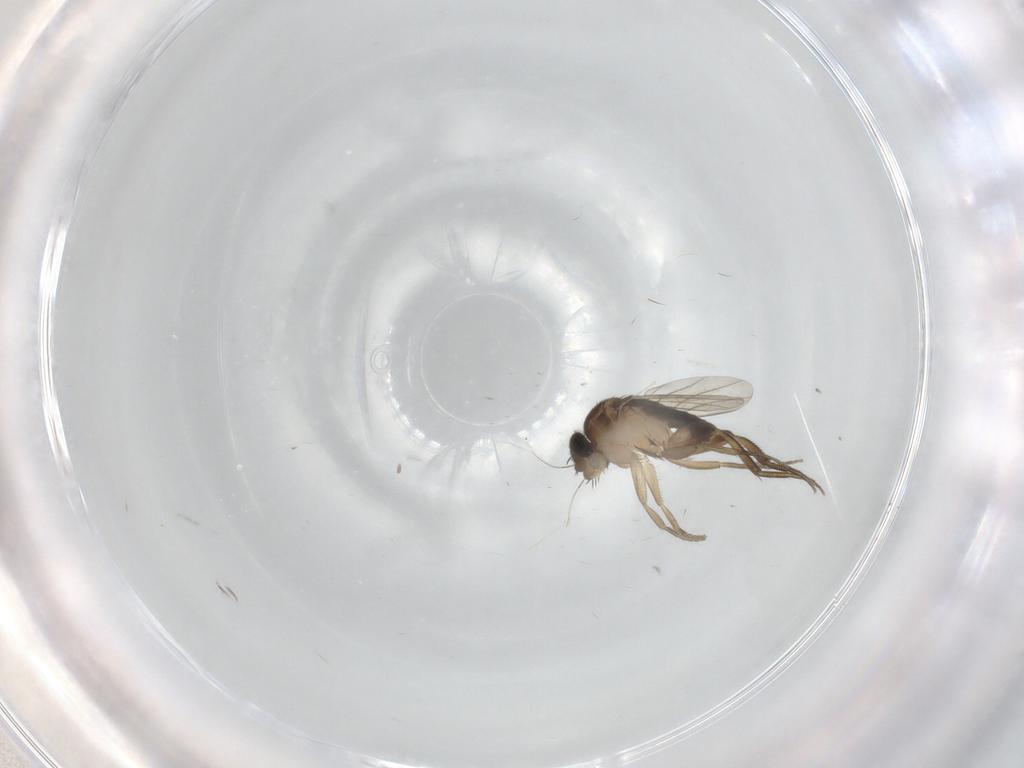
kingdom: Animalia
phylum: Arthropoda
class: Insecta
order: Diptera
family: Phoridae
